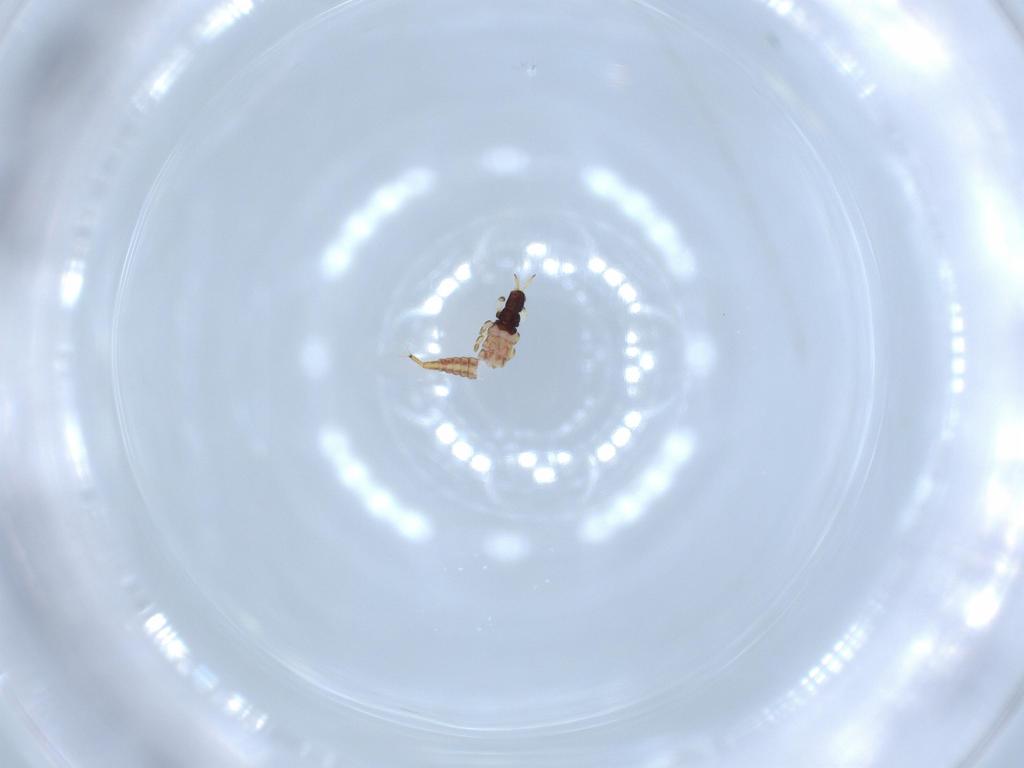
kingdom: Animalia
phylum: Arthropoda
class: Insecta
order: Thysanoptera
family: Phlaeothripidae
